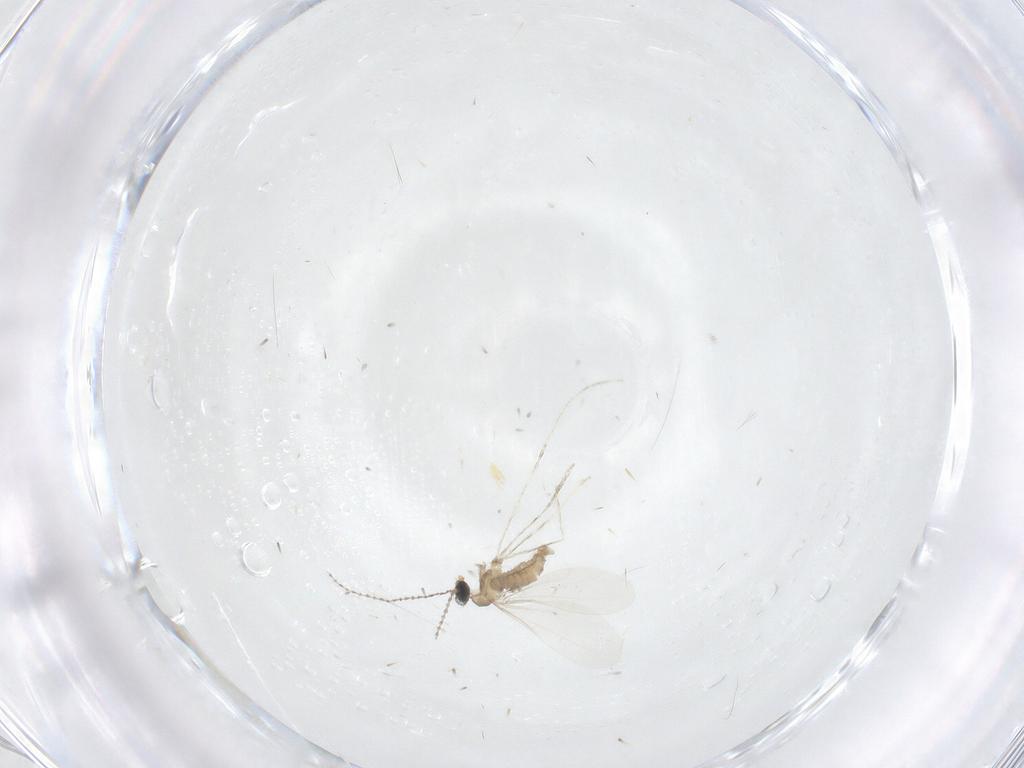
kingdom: Animalia
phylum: Arthropoda
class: Insecta
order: Diptera
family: Cecidomyiidae
